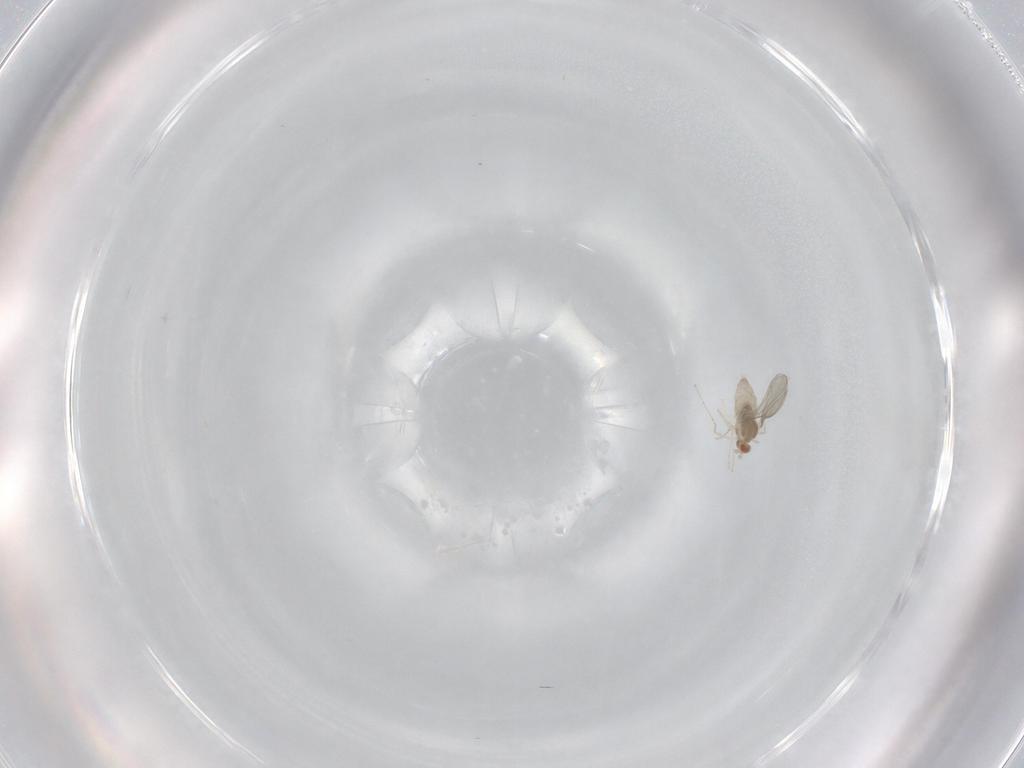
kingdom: Animalia
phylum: Arthropoda
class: Insecta
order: Diptera
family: Cecidomyiidae
